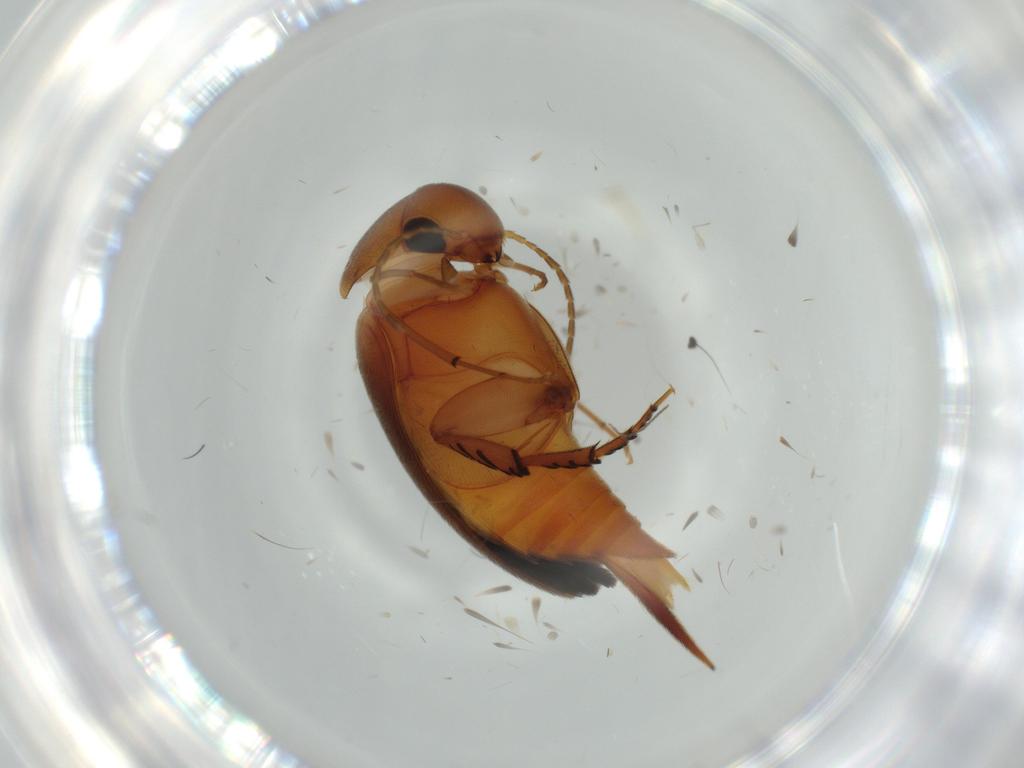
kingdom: Animalia
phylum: Arthropoda
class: Insecta
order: Coleoptera
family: Mordellidae
